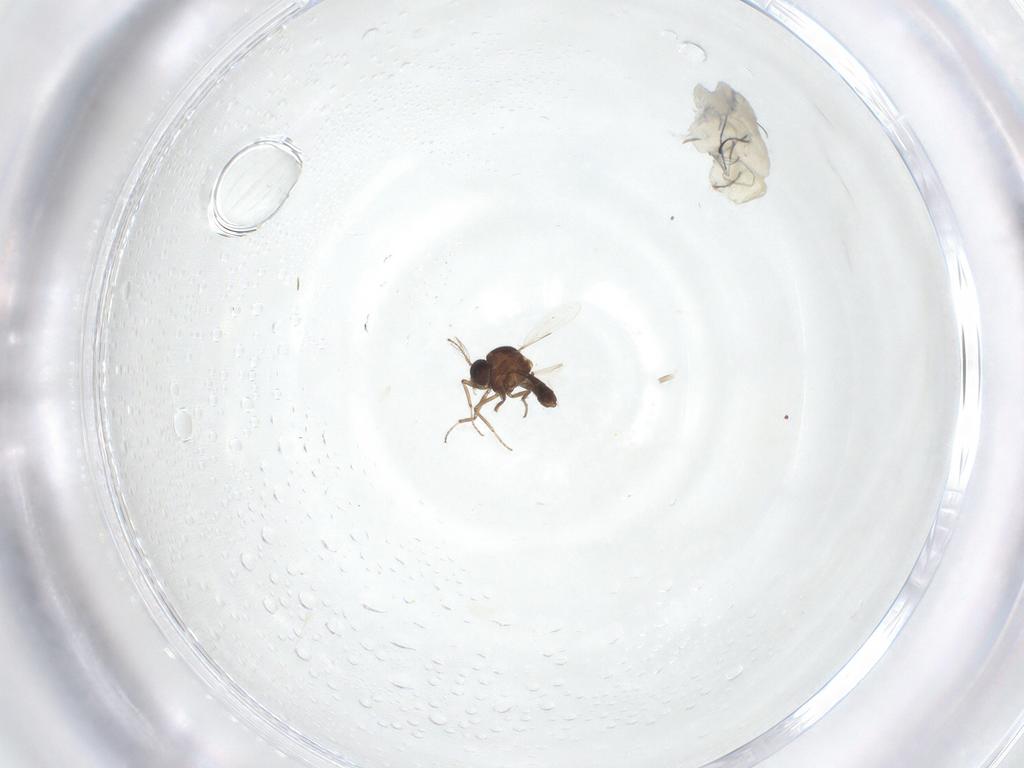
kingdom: Animalia
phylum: Arthropoda
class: Insecta
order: Diptera
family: Ceratopogonidae
